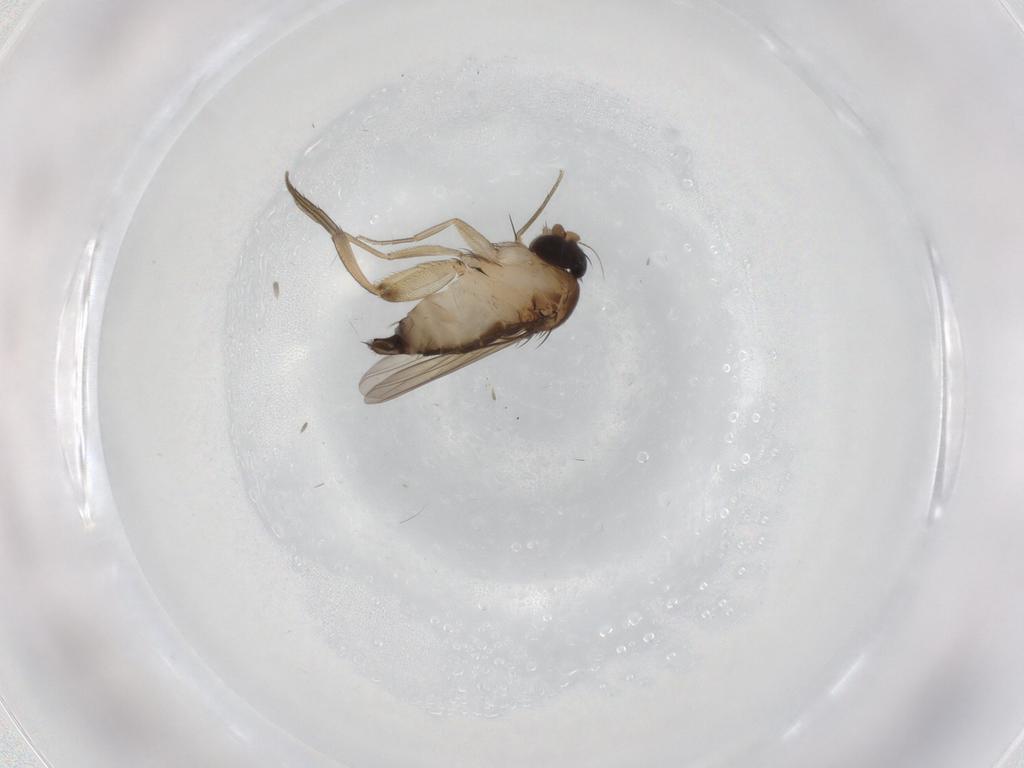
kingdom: Animalia
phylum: Arthropoda
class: Insecta
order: Diptera
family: Phoridae
